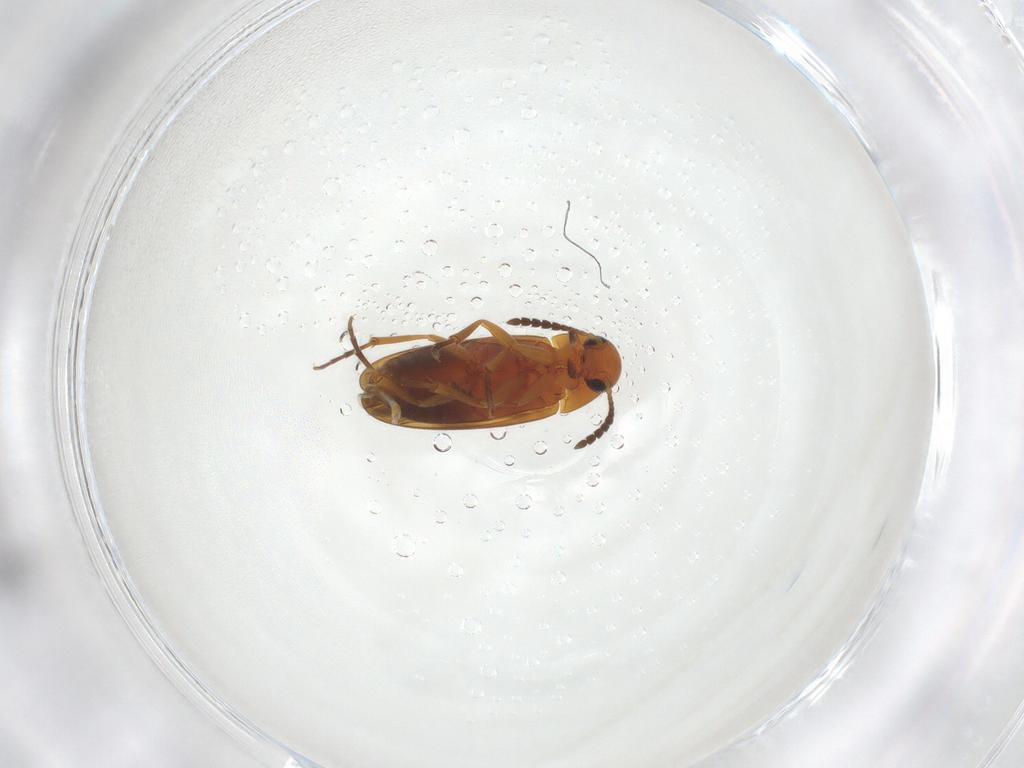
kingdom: Animalia
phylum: Arthropoda
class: Insecta
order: Coleoptera
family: Scraptiidae
